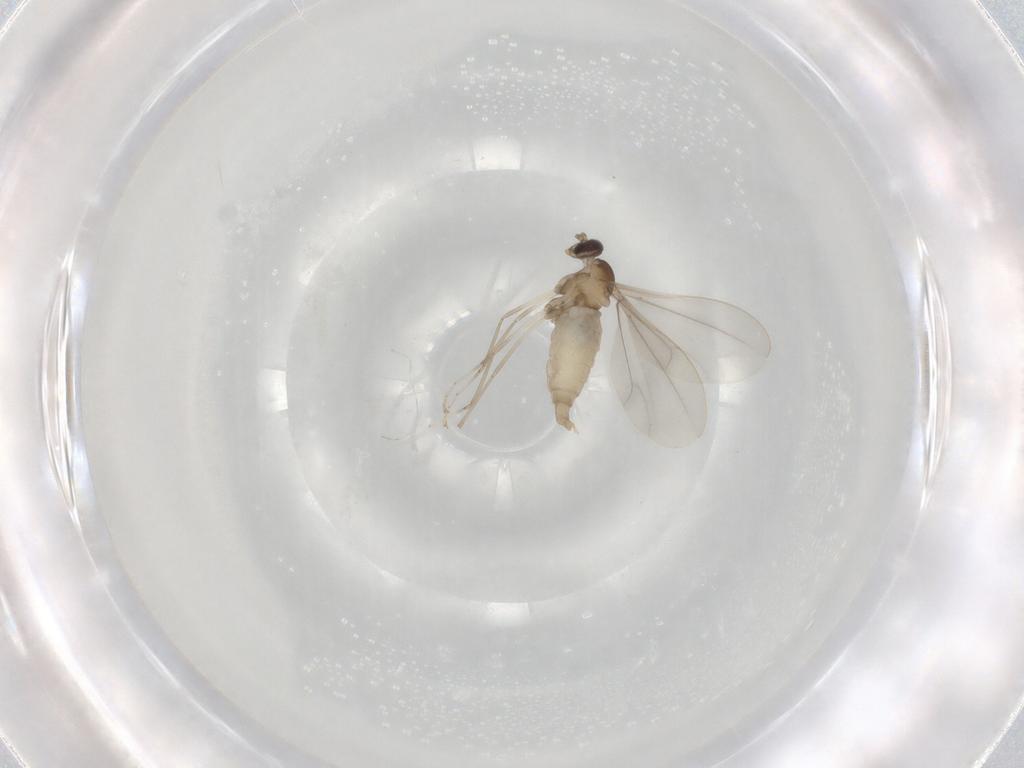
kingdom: Animalia
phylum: Arthropoda
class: Insecta
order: Diptera
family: Cecidomyiidae
